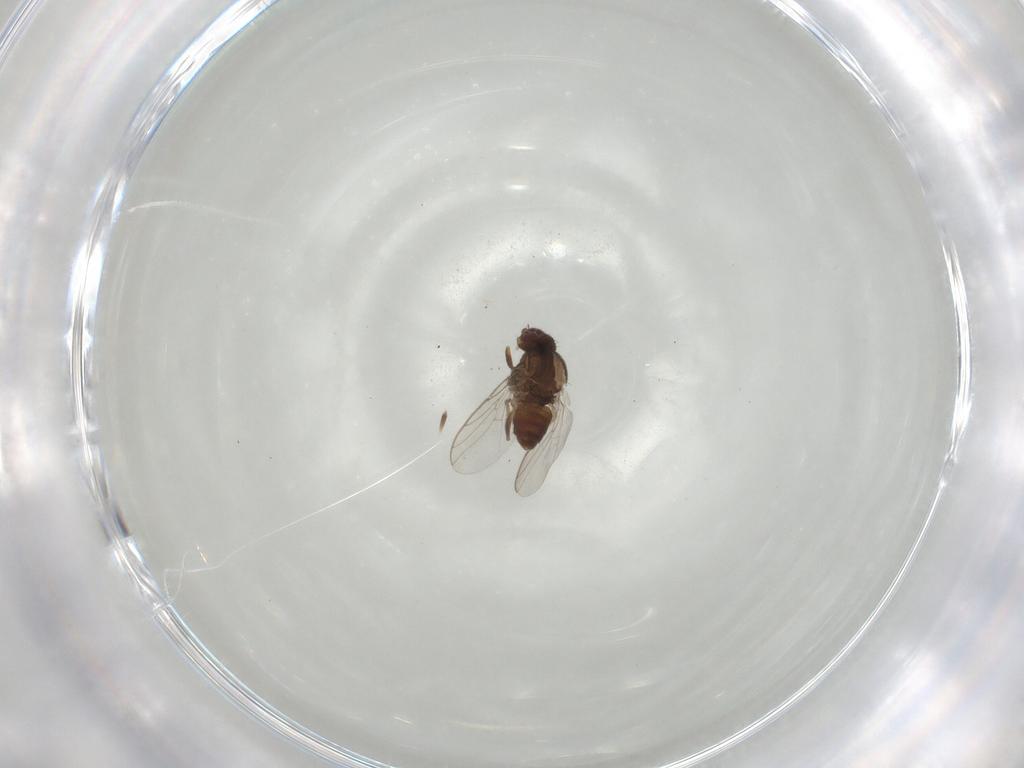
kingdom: Animalia
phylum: Arthropoda
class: Insecta
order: Diptera
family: Chloropidae
